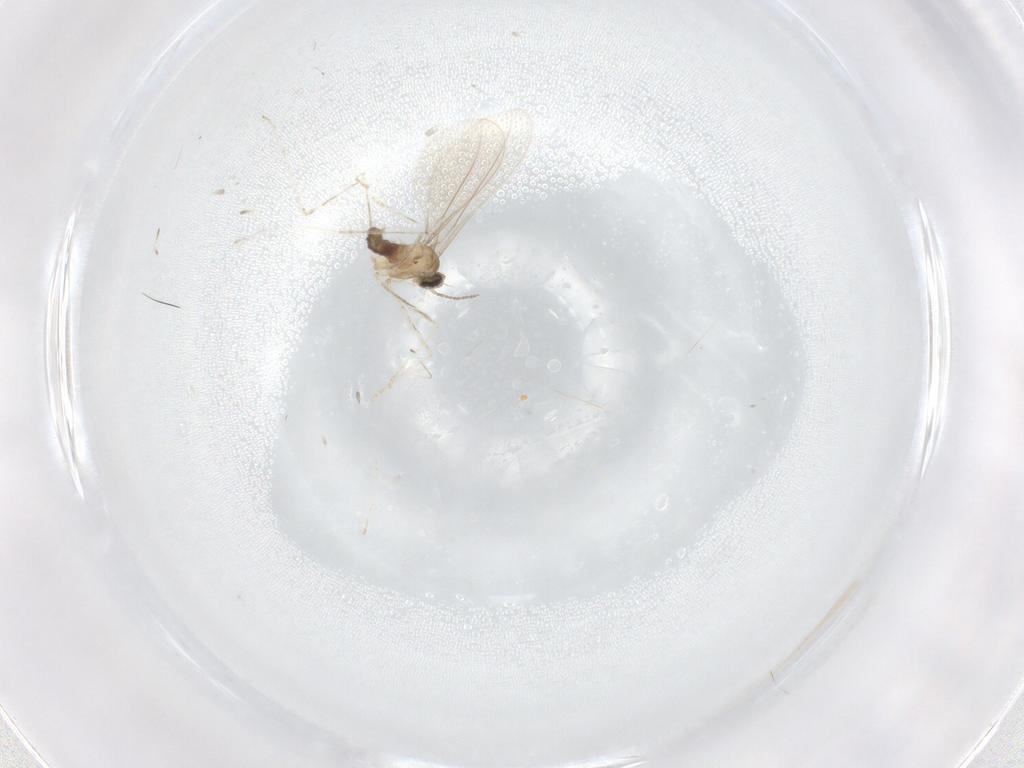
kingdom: Animalia
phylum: Arthropoda
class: Insecta
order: Diptera
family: Cecidomyiidae
